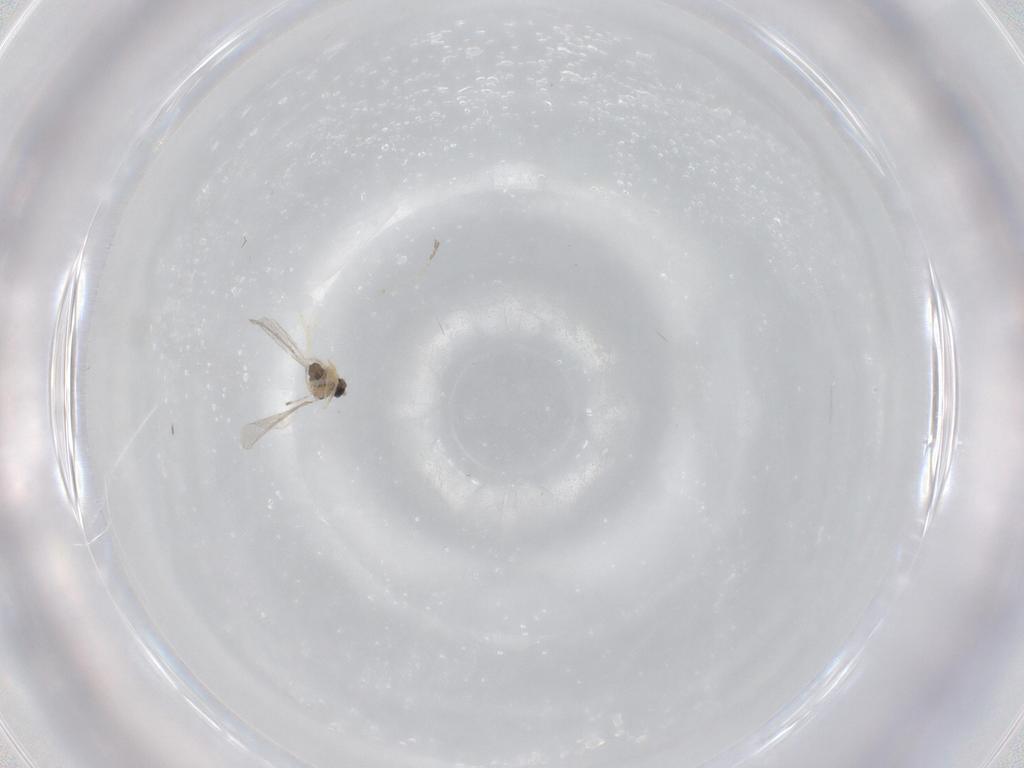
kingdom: Animalia
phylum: Arthropoda
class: Insecta
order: Diptera
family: Cecidomyiidae
